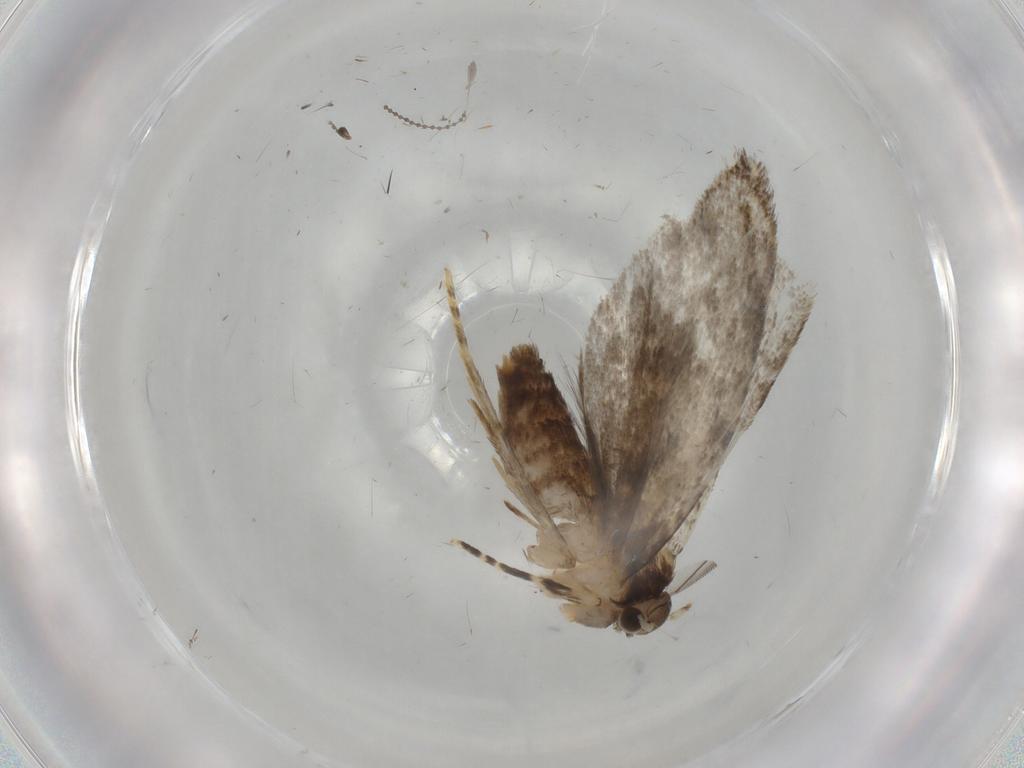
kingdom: Animalia
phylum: Arthropoda
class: Insecta
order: Lepidoptera
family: Tineidae
